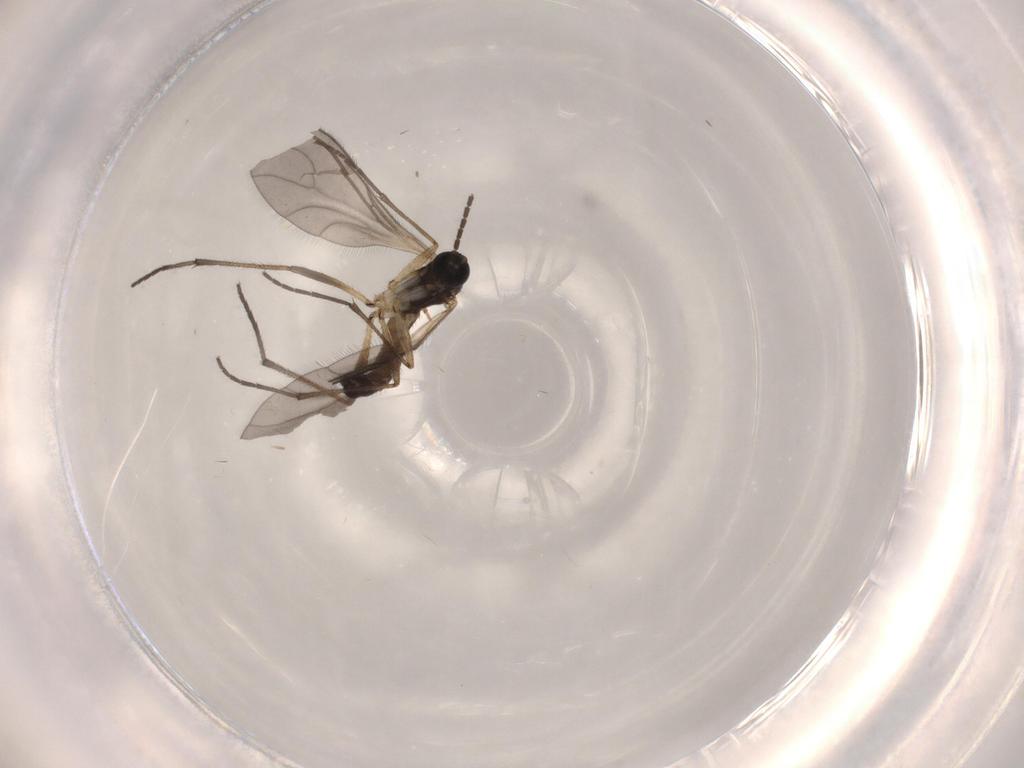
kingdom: Animalia
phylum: Arthropoda
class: Insecta
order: Diptera
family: Sciaridae
